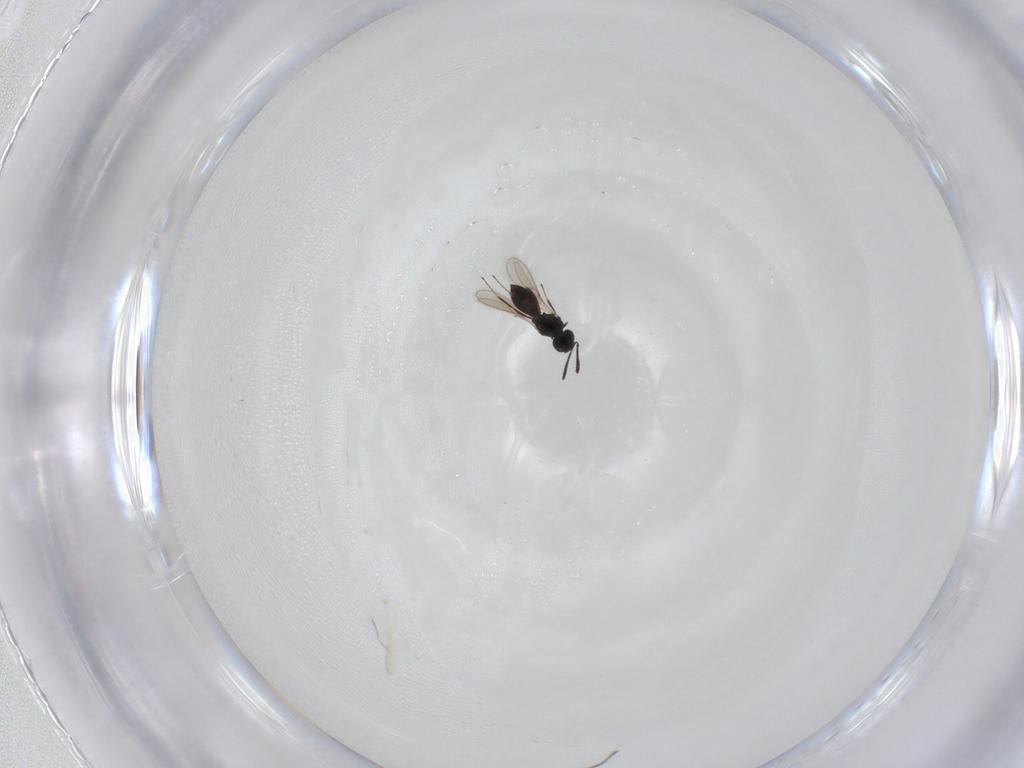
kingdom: Animalia
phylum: Arthropoda
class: Insecta
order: Hymenoptera
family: Scelionidae
